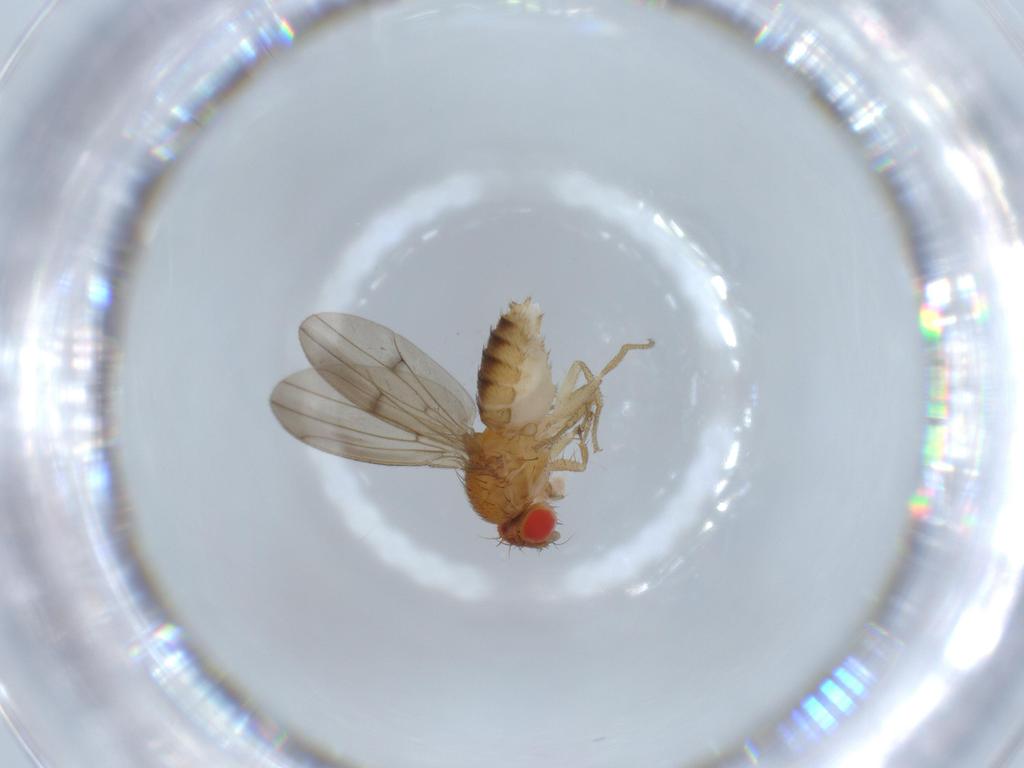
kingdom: Animalia
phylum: Arthropoda
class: Insecta
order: Diptera
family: Drosophilidae
